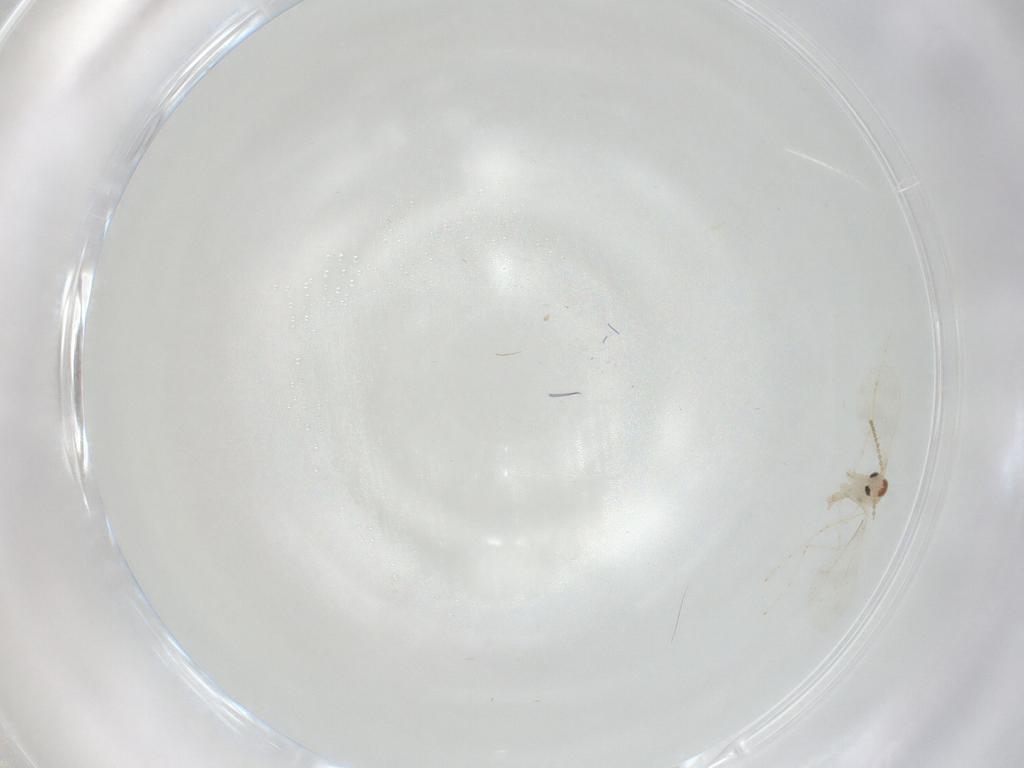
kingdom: Animalia
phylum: Arthropoda
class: Insecta
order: Diptera
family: Cecidomyiidae
